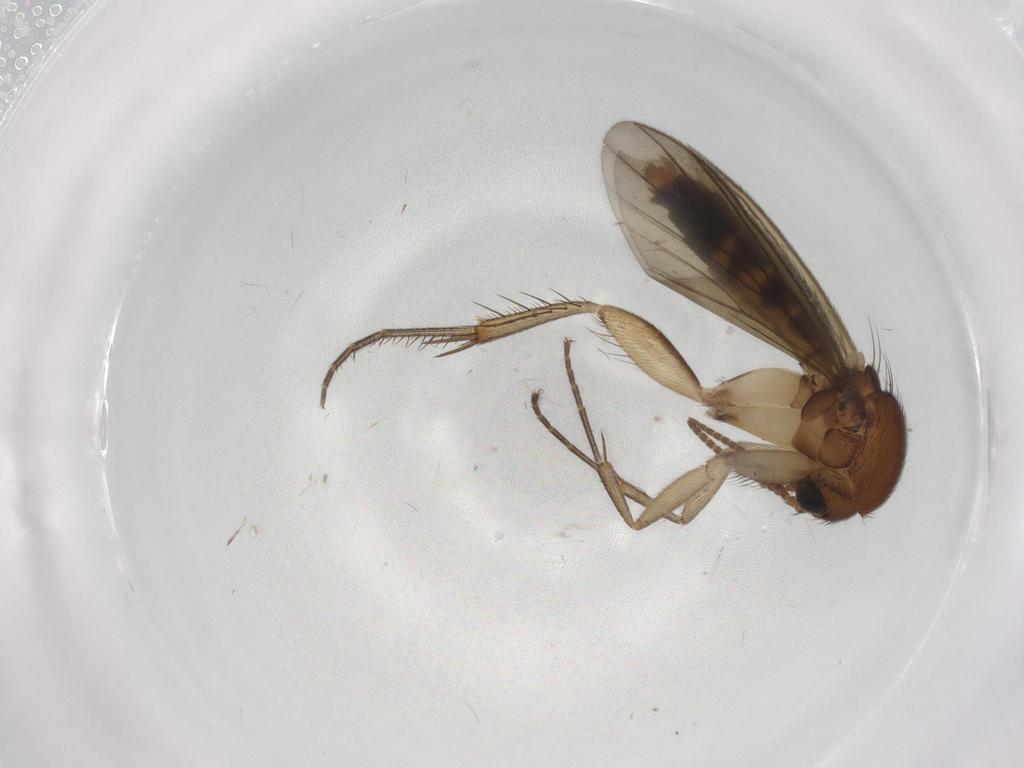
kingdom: Animalia
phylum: Arthropoda
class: Insecta
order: Diptera
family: Mycetophilidae
